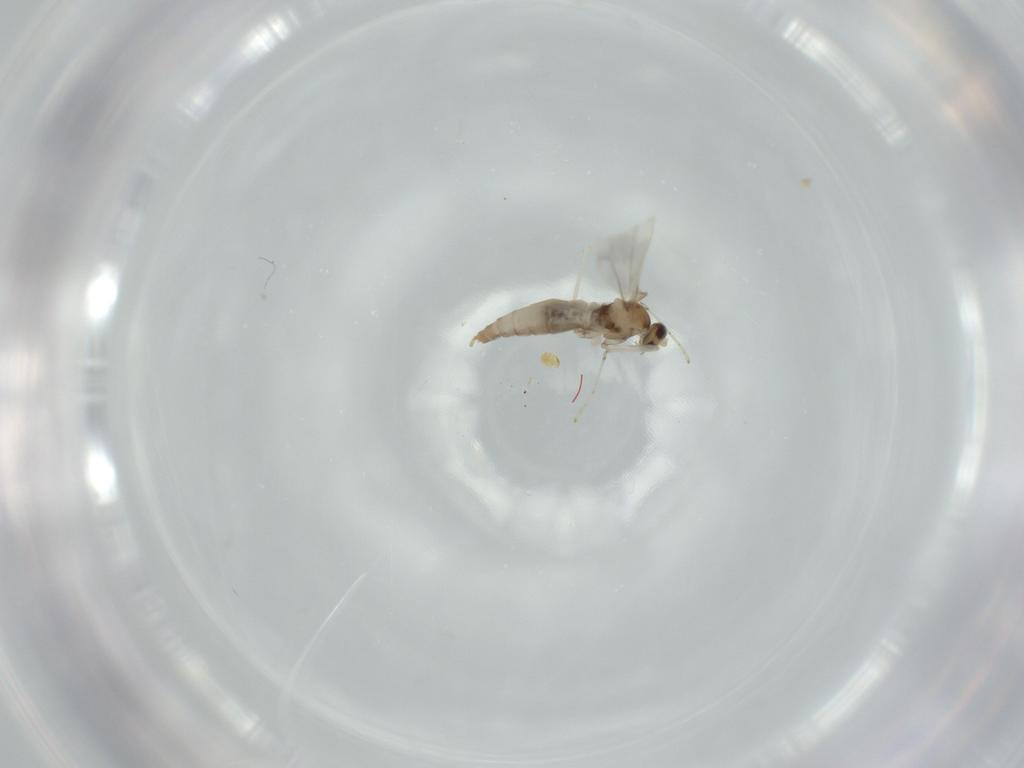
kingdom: Animalia
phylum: Arthropoda
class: Insecta
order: Diptera
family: Cecidomyiidae
